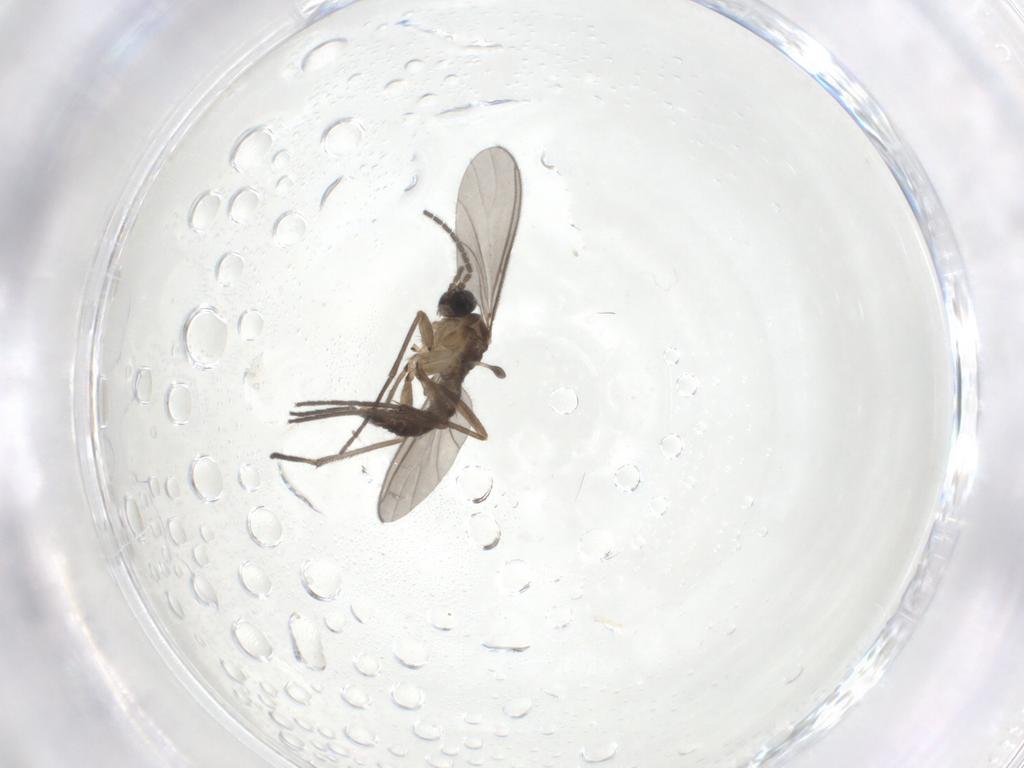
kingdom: Animalia
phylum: Arthropoda
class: Insecta
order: Diptera
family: Sciaridae
